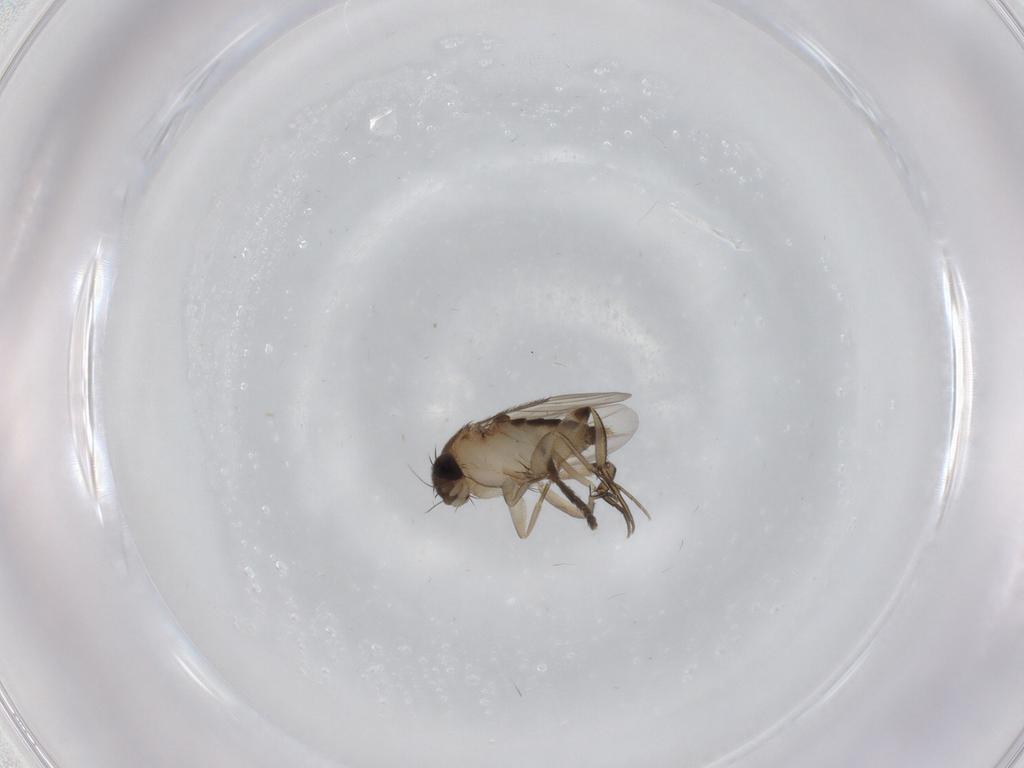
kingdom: Animalia
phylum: Arthropoda
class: Insecta
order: Diptera
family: Phoridae
